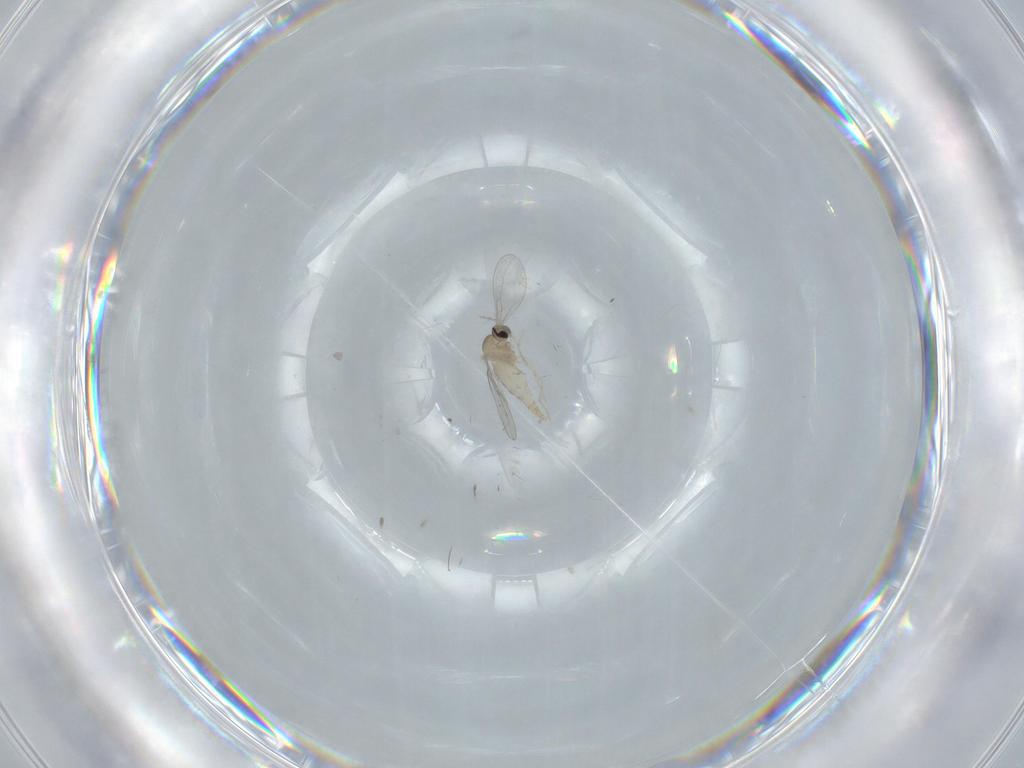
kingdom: Animalia
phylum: Arthropoda
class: Insecta
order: Diptera
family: Cecidomyiidae
